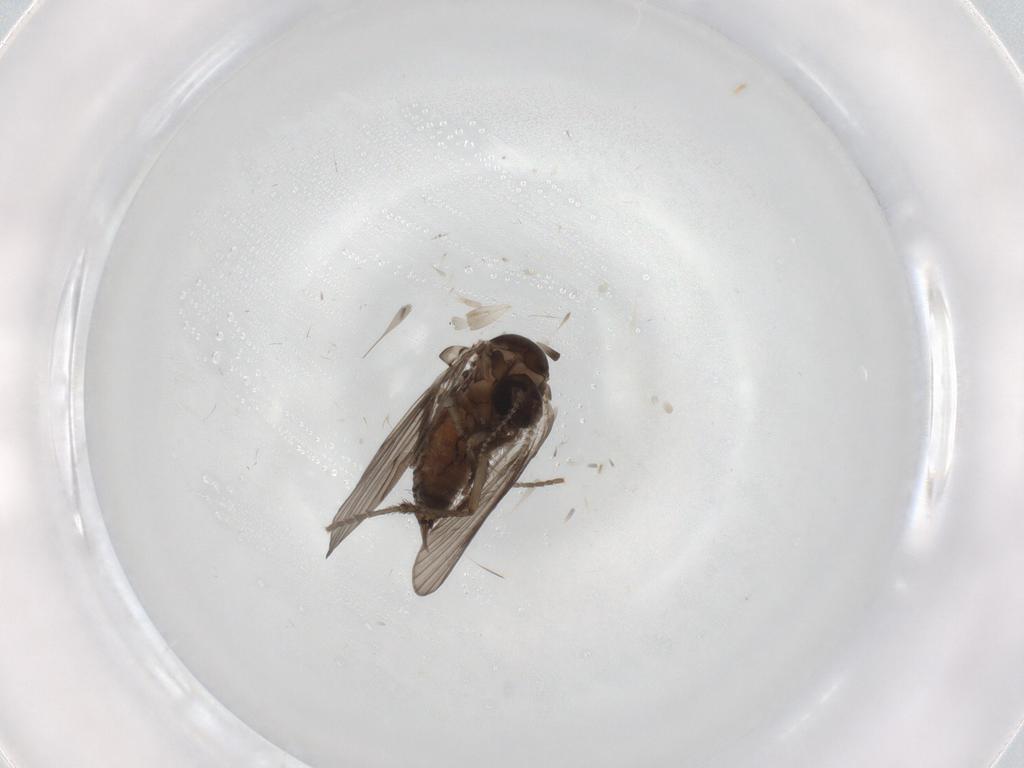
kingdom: Animalia
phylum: Arthropoda
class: Insecta
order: Diptera
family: Psychodidae
